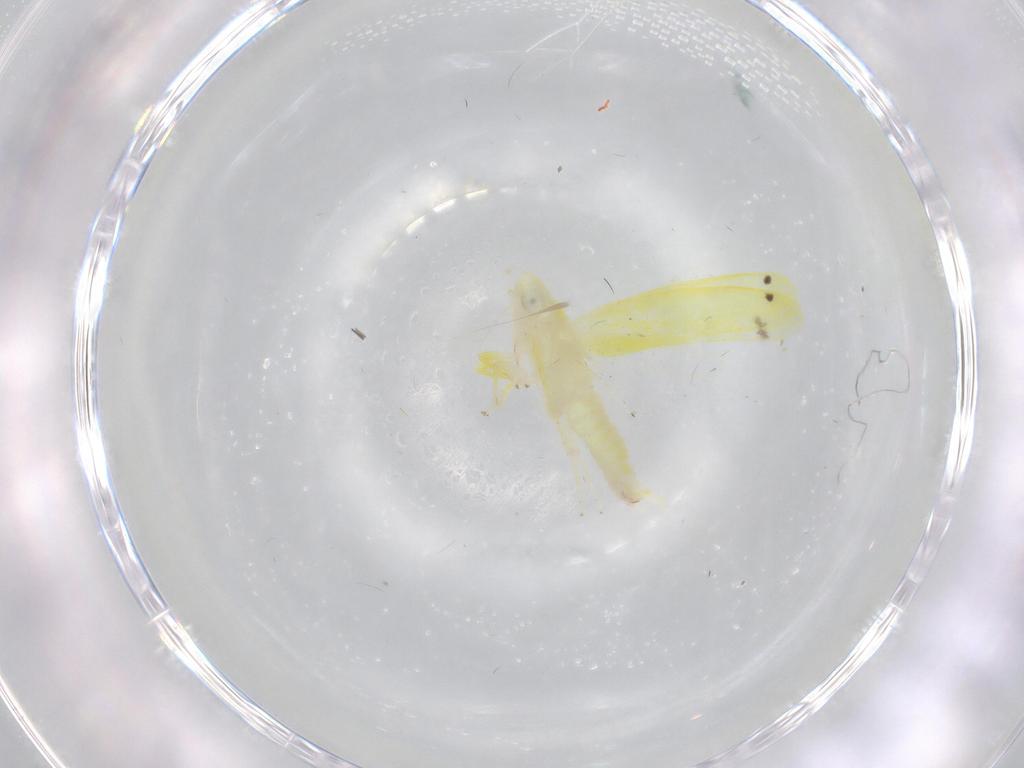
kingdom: Animalia
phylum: Arthropoda
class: Insecta
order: Hemiptera
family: Cicadellidae
